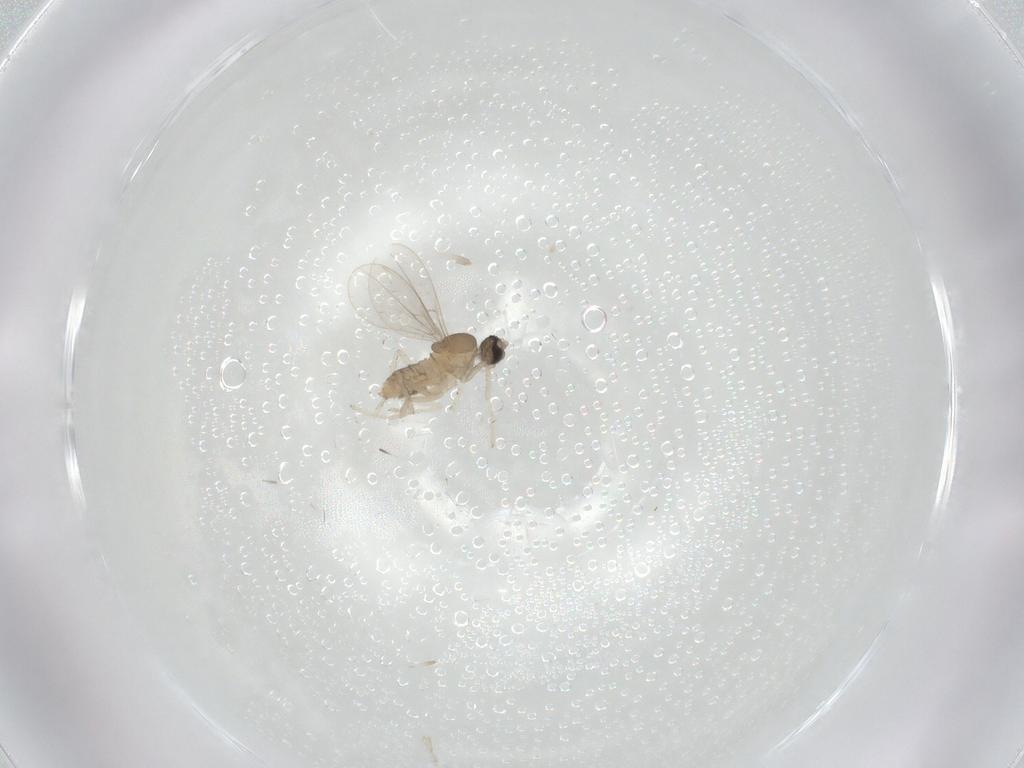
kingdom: Animalia
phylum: Arthropoda
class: Insecta
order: Diptera
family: Cecidomyiidae
